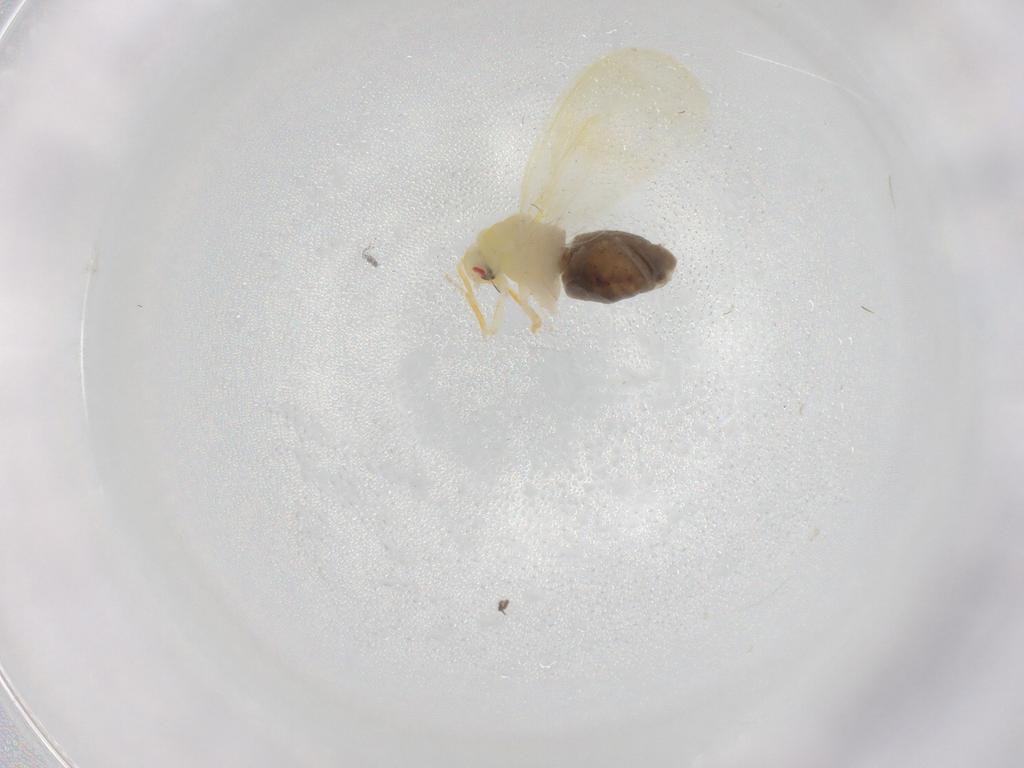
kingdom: Animalia
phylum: Arthropoda
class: Insecta
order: Hemiptera
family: Aleyrodidae
